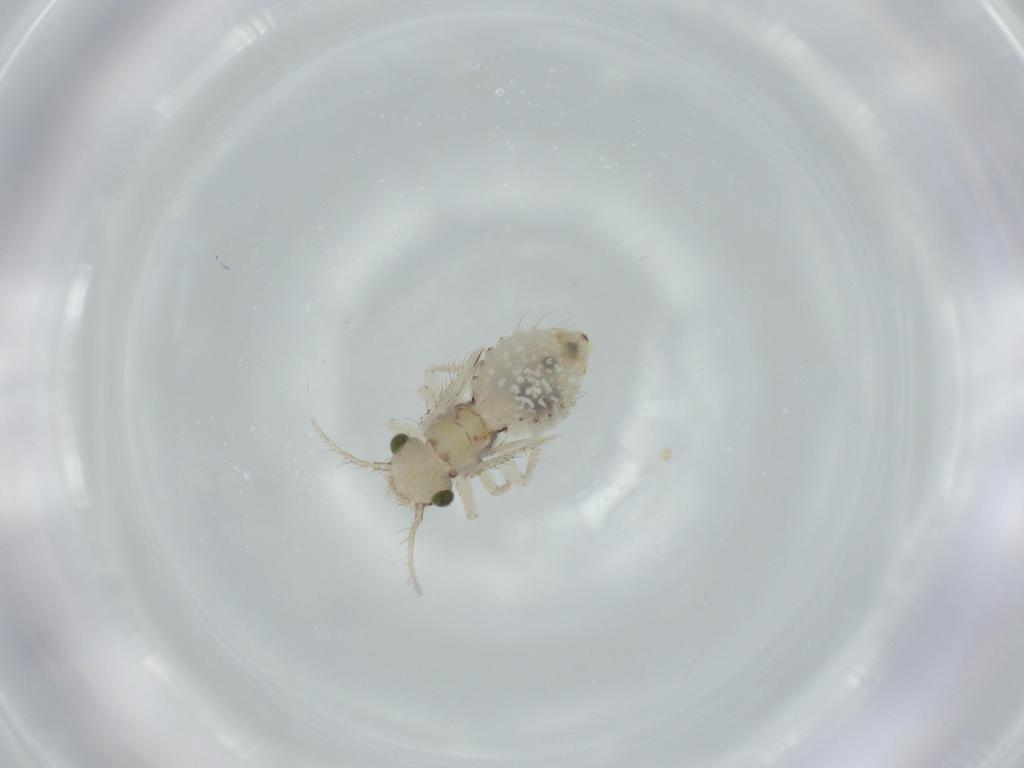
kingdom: Animalia
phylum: Arthropoda
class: Insecta
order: Psocodea
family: Pseudocaeciliidae
